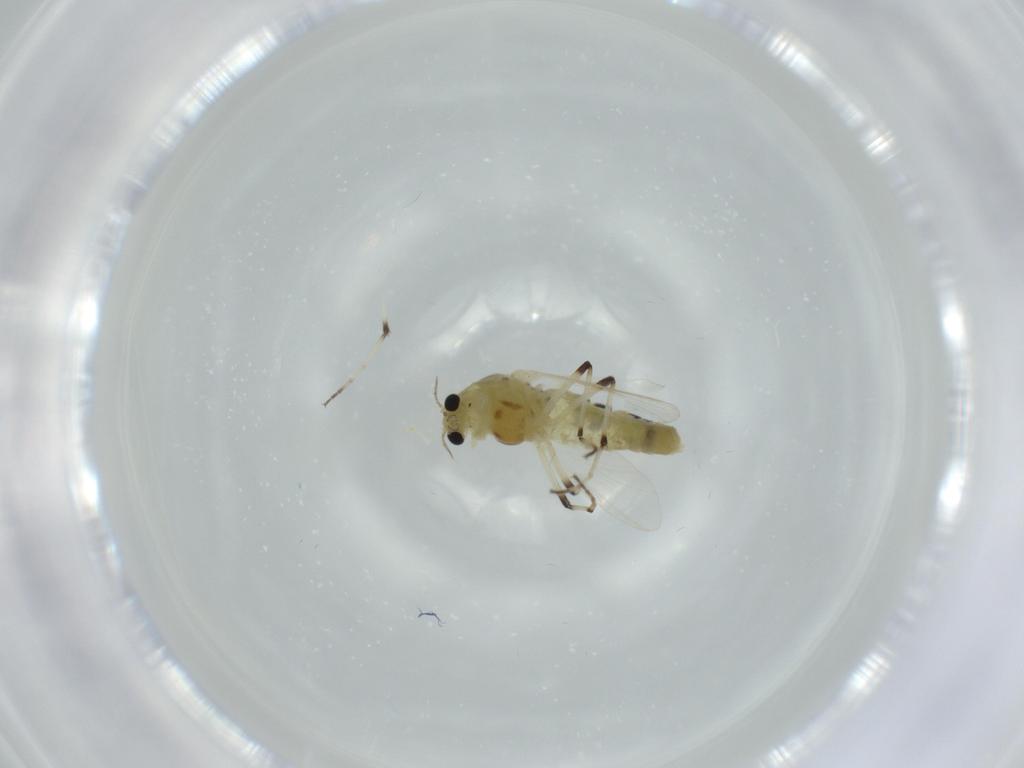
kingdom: Animalia
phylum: Arthropoda
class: Insecta
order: Diptera
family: Chironomidae
